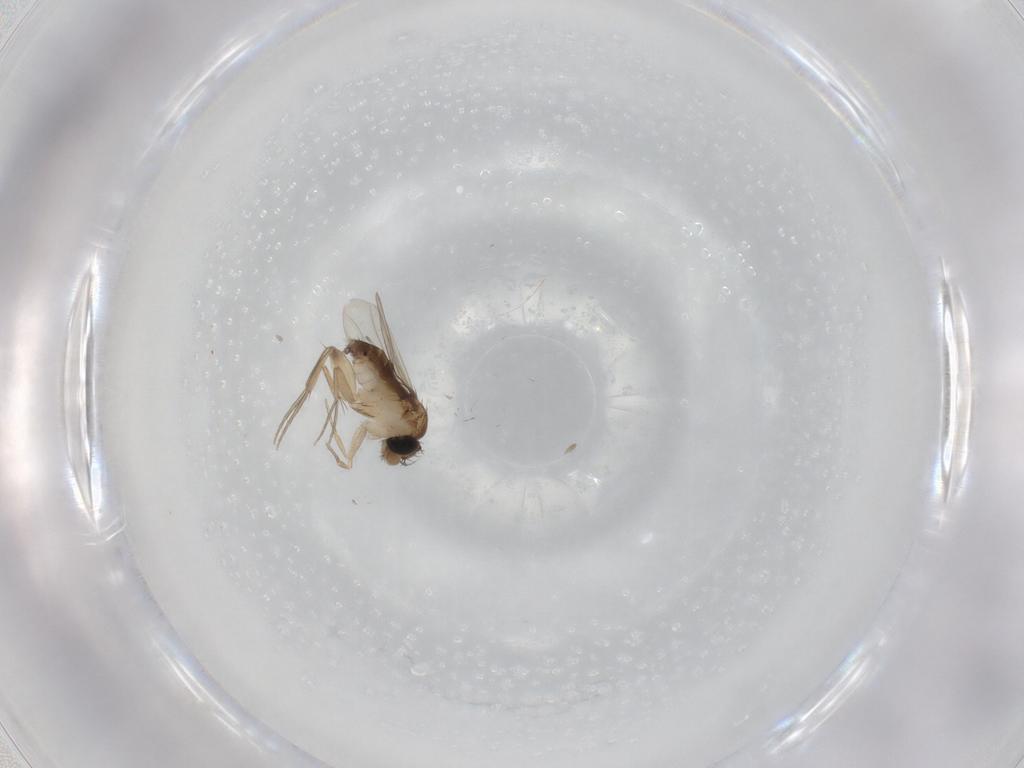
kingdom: Animalia
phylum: Arthropoda
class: Insecta
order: Diptera
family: Phoridae
